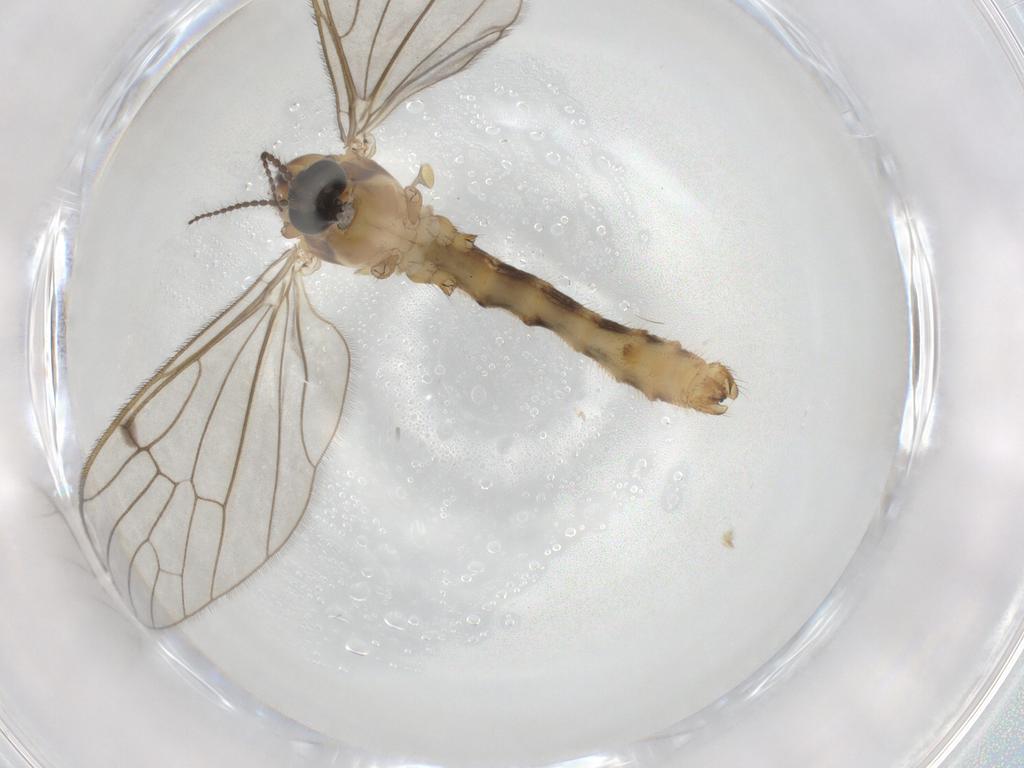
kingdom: Animalia
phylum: Arthropoda
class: Insecta
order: Diptera
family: Limoniidae
